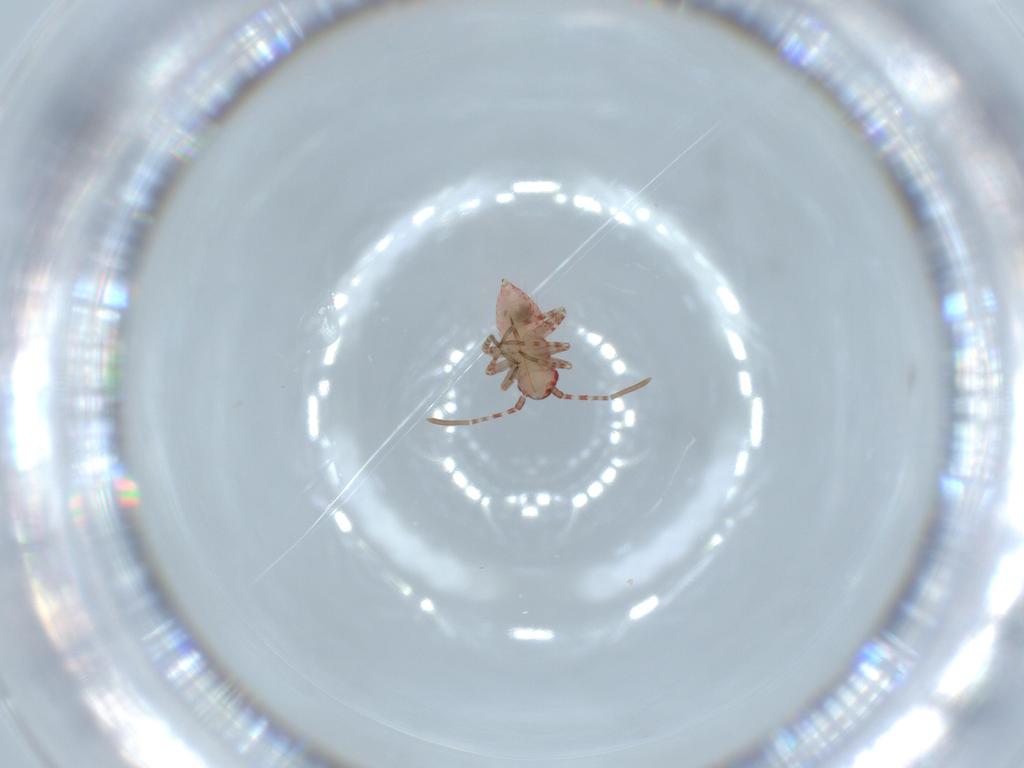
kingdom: Animalia
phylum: Arthropoda
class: Insecta
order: Hemiptera
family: Miridae
